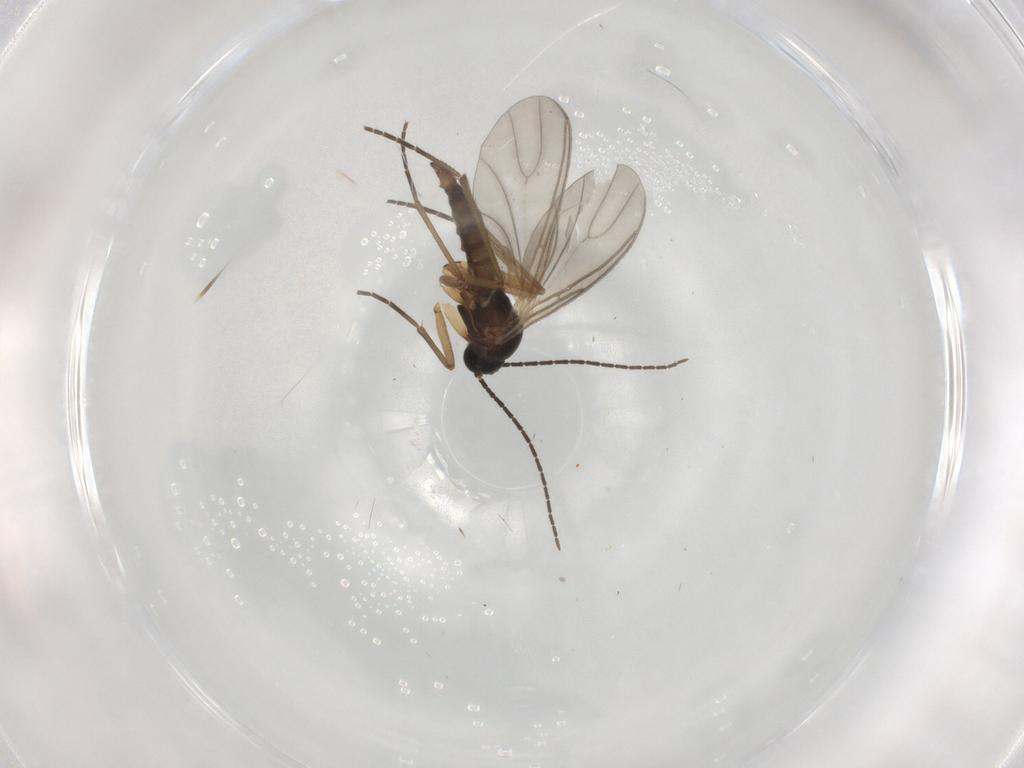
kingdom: Animalia
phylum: Arthropoda
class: Insecta
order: Diptera
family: Sciaridae
